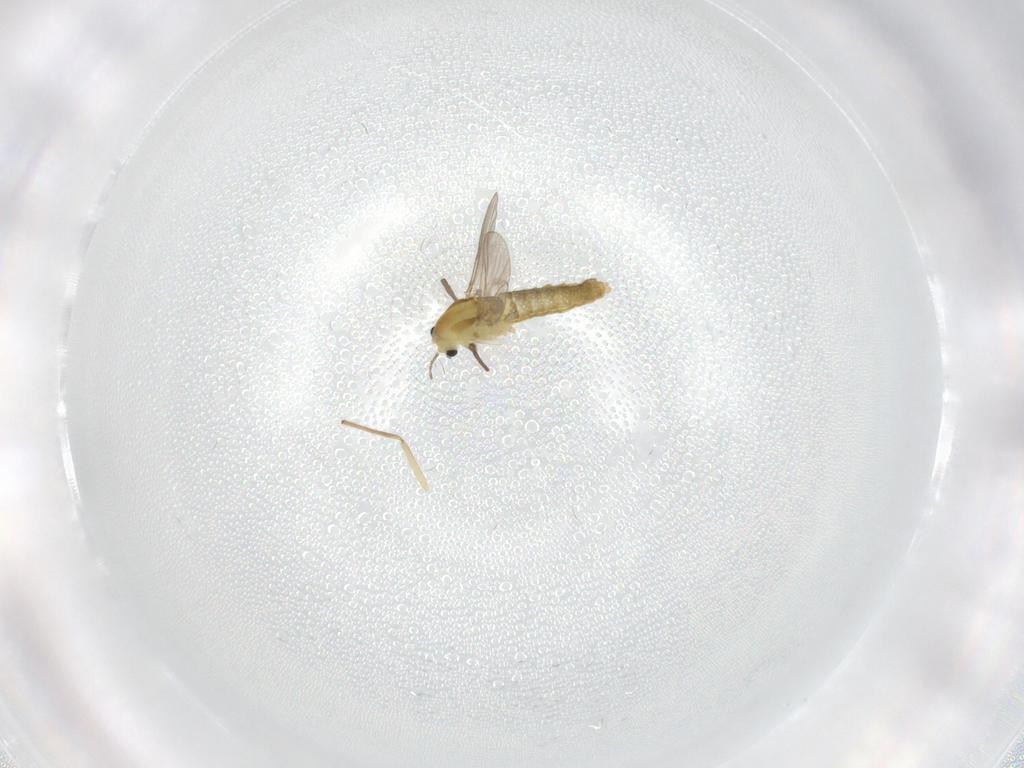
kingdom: Animalia
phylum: Arthropoda
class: Insecta
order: Diptera
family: Chironomidae
